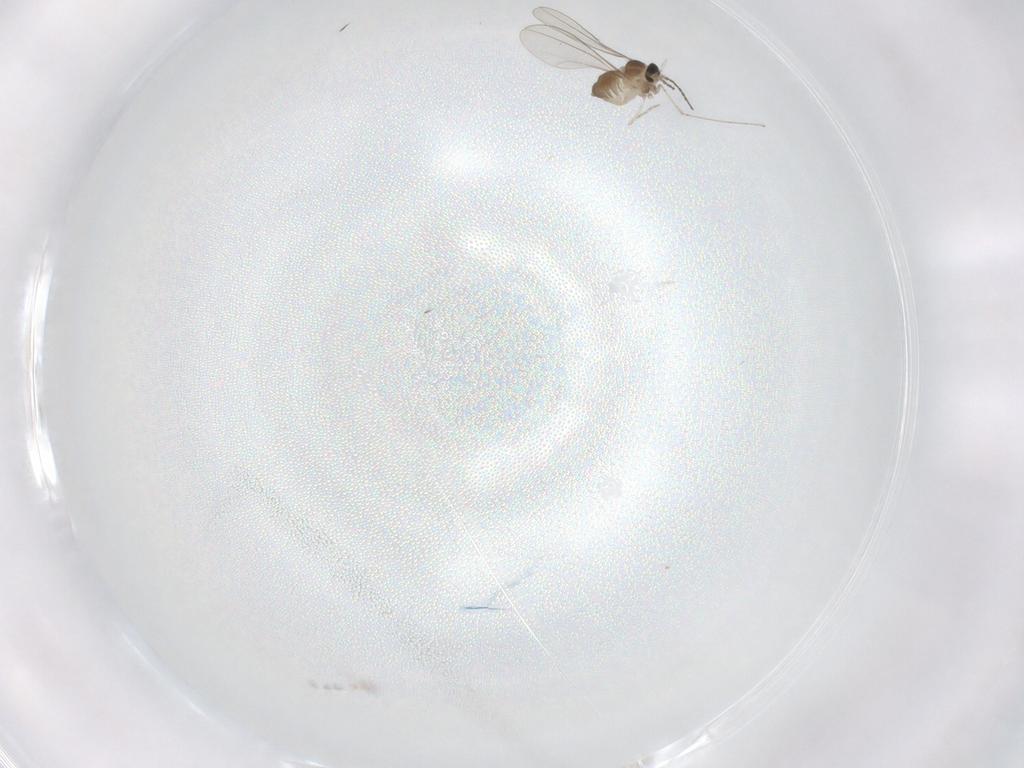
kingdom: Animalia
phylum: Arthropoda
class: Insecta
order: Diptera
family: Cecidomyiidae
